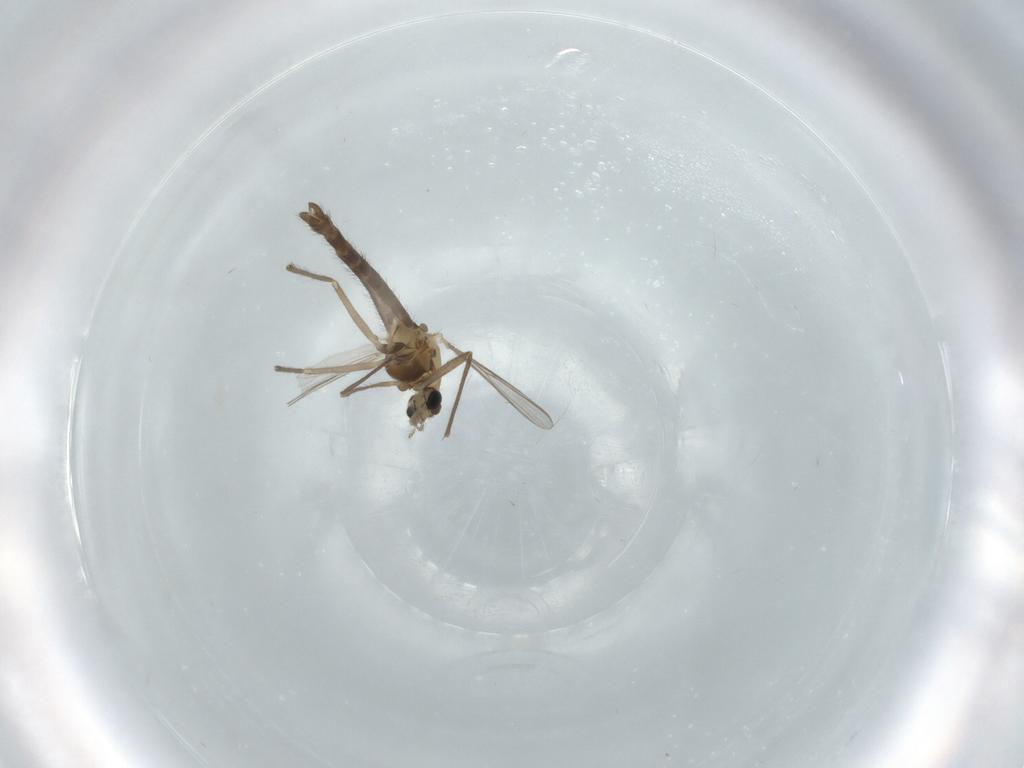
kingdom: Animalia
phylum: Arthropoda
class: Insecta
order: Diptera
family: Chironomidae
